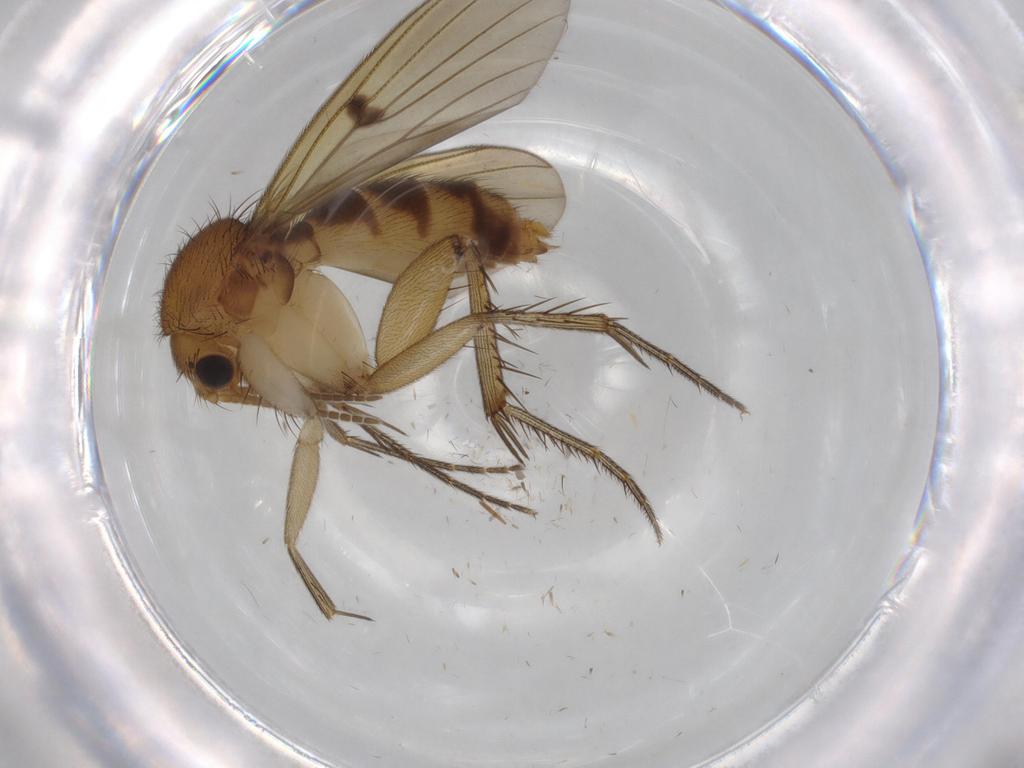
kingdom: Animalia
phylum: Arthropoda
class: Insecta
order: Diptera
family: Mycetophilidae
